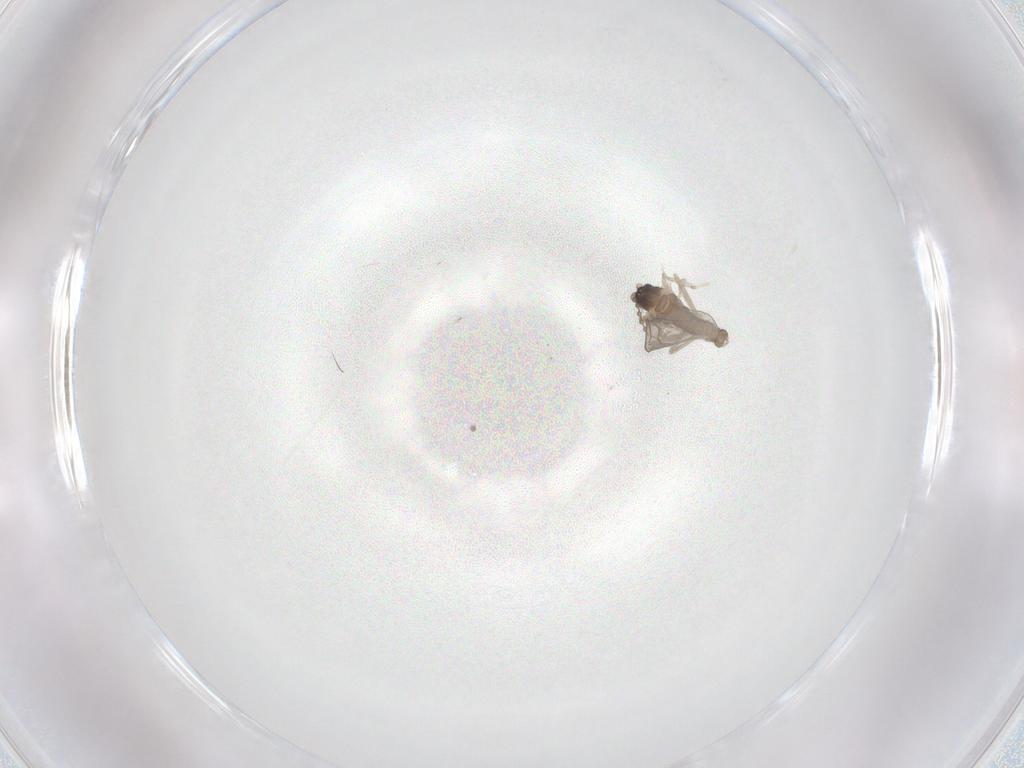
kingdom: Animalia
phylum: Arthropoda
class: Insecta
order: Diptera
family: Cecidomyiidae
